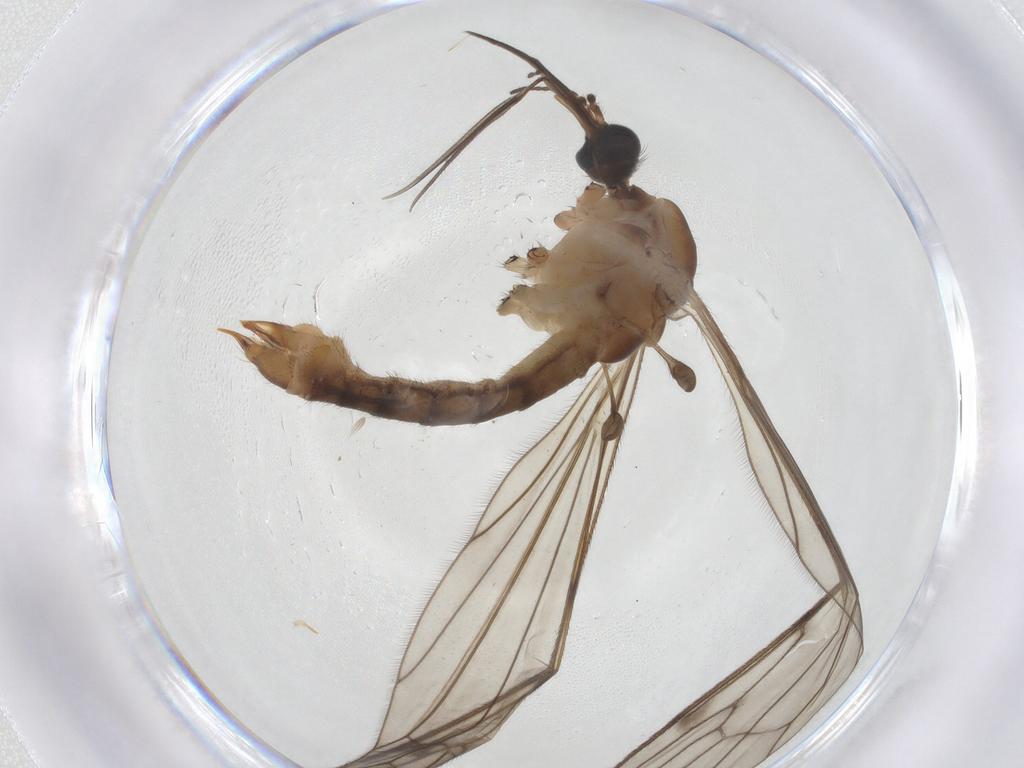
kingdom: Animalia
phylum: Arthropoda
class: Insecta
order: Diptera
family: Limoniidae
